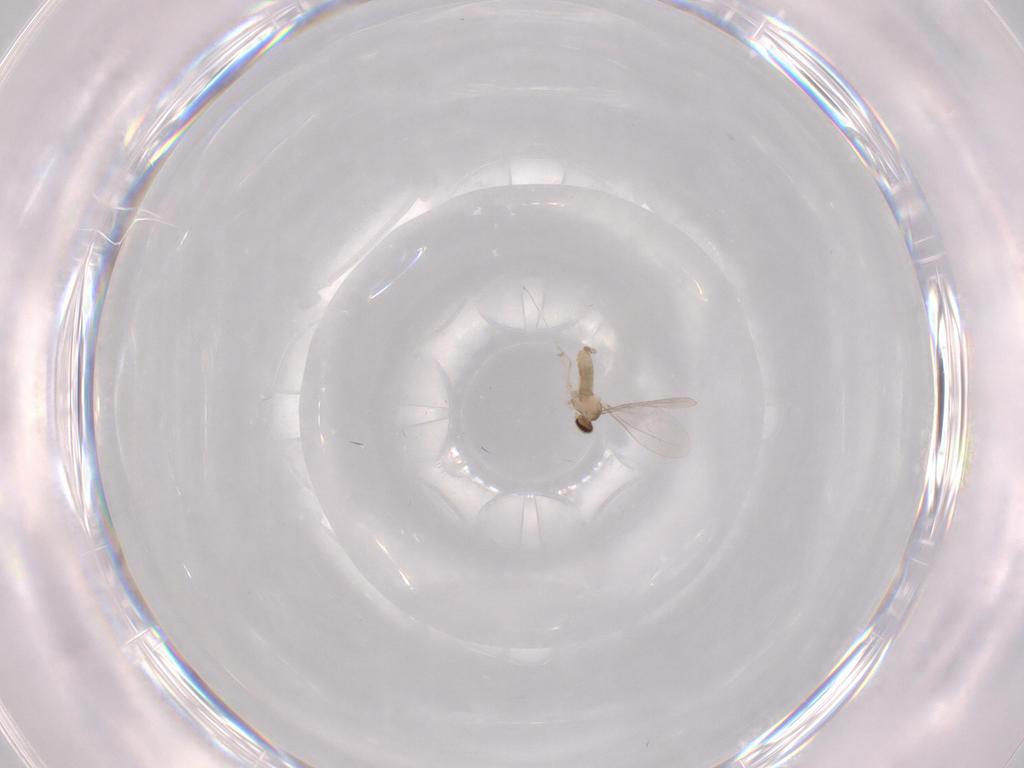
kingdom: Animalia
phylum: Arthropoda
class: Insecta
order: Diptera
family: Cecidomyiidae
